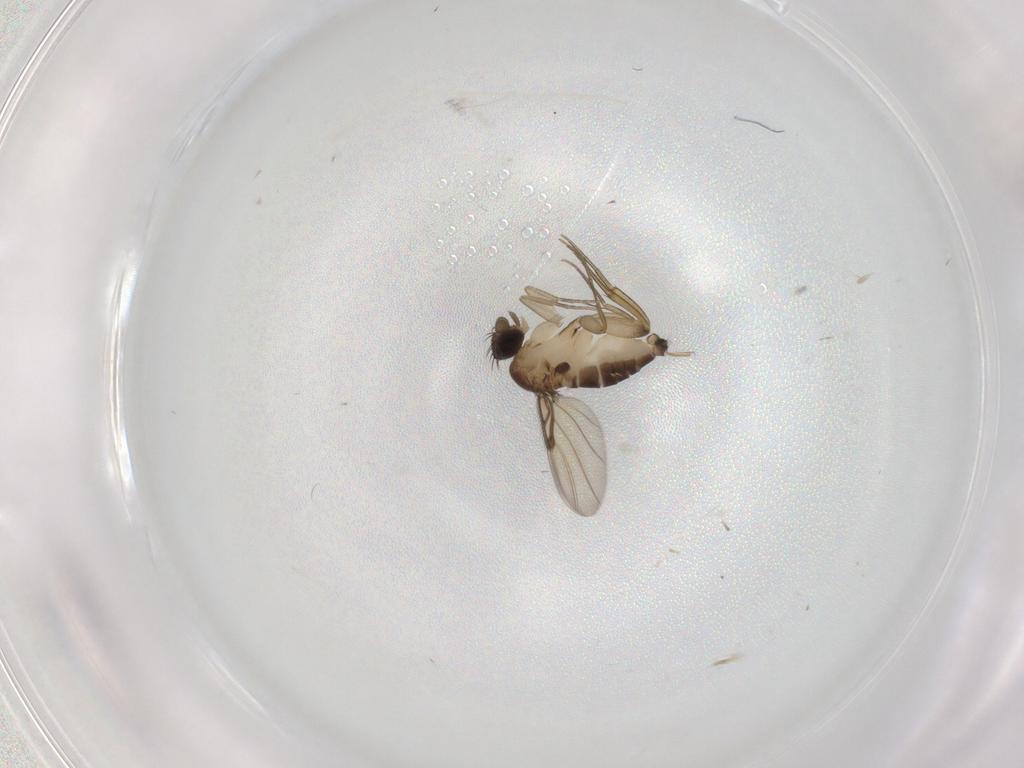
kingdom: Animalia
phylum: Arthropoda
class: Insecta
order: Diptera
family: Phoridae
